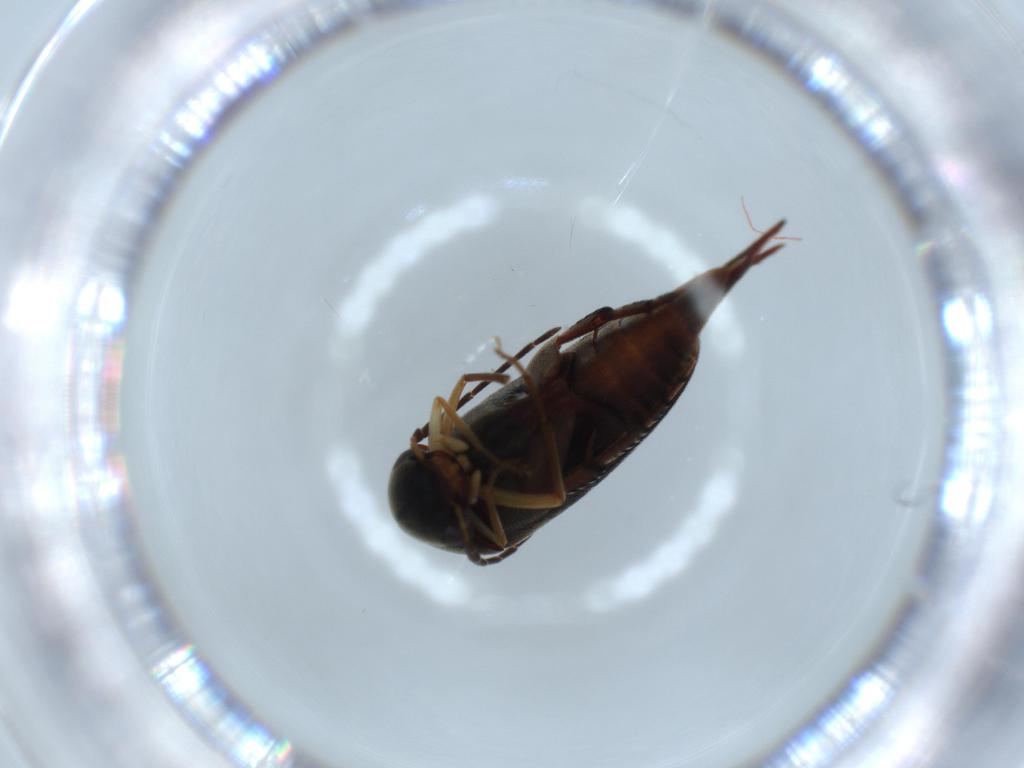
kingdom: Animalia
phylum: Arthropoda
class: Insecta
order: Coleoptera
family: Mordellidae
